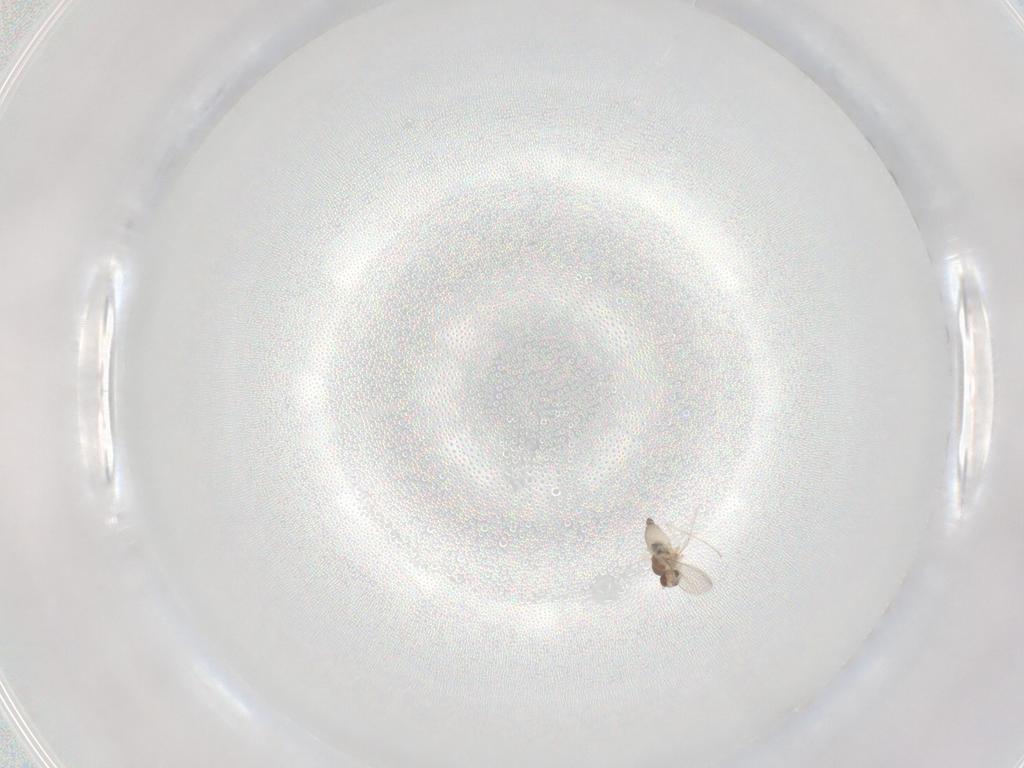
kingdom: Animalia
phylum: Arthropoda
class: Insecta
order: Diptera
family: Cecidomyiidae
